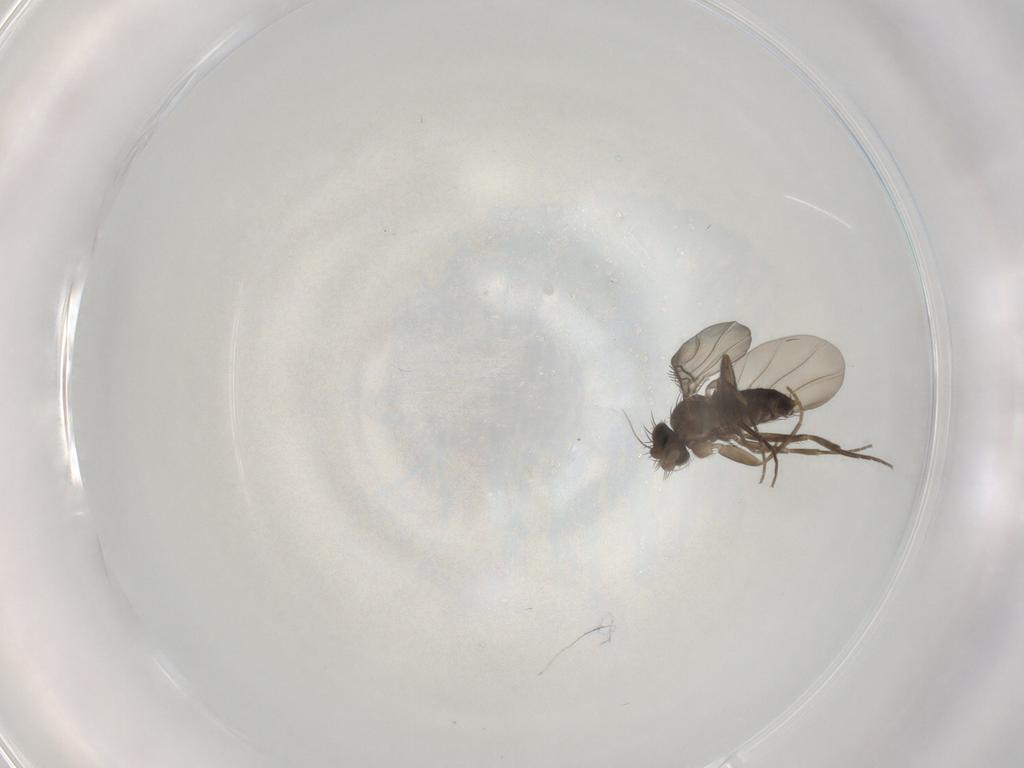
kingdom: Animalia
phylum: Arthropoda
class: Insecta
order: Diptera
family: Phoridae
